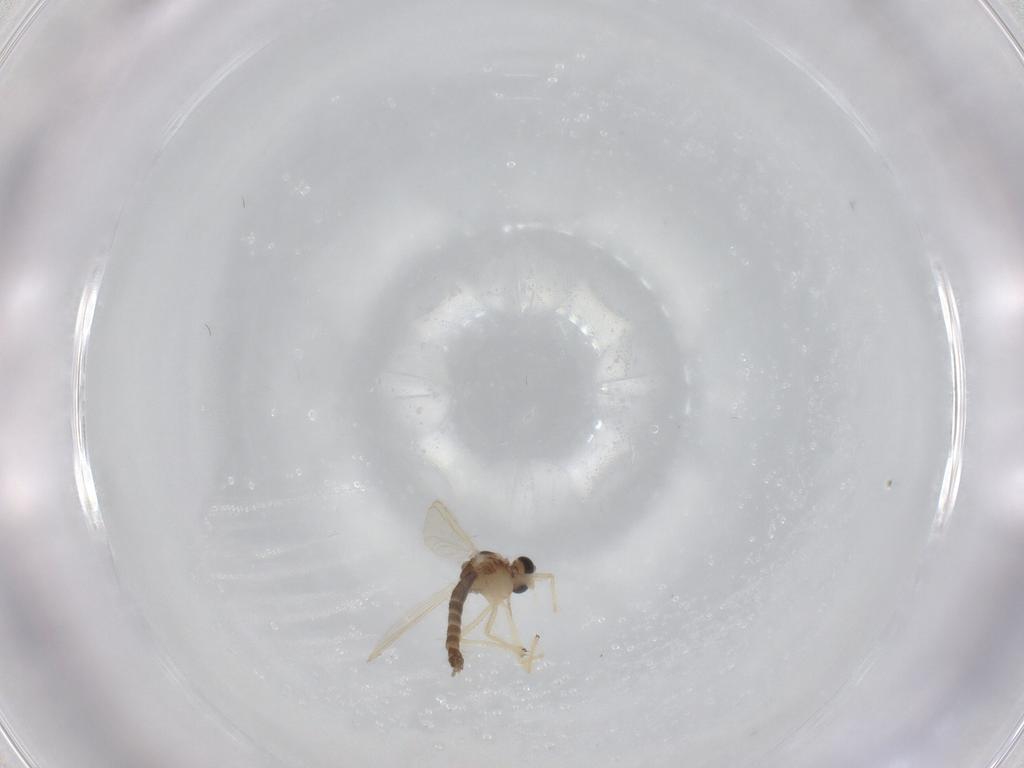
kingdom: Animalia
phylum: Arthropoda
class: Insecta
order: Diptera
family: Chironomidae
